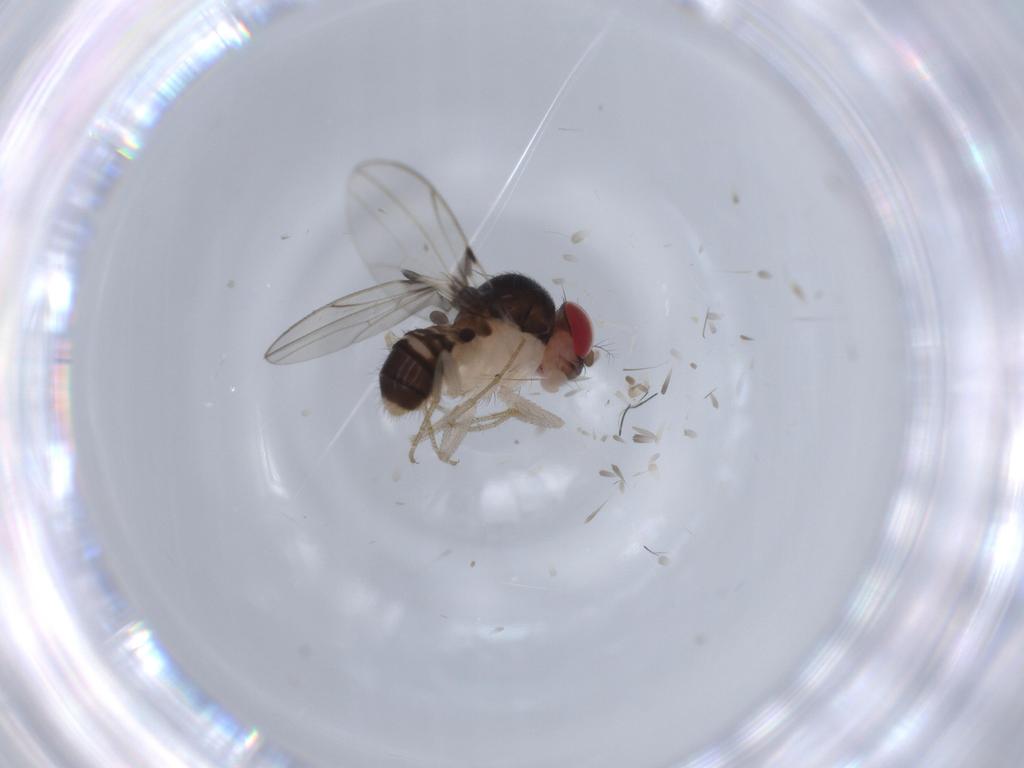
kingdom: Animalia
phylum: Arthropoda
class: Insecta
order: Diptera
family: Drosophilidae
